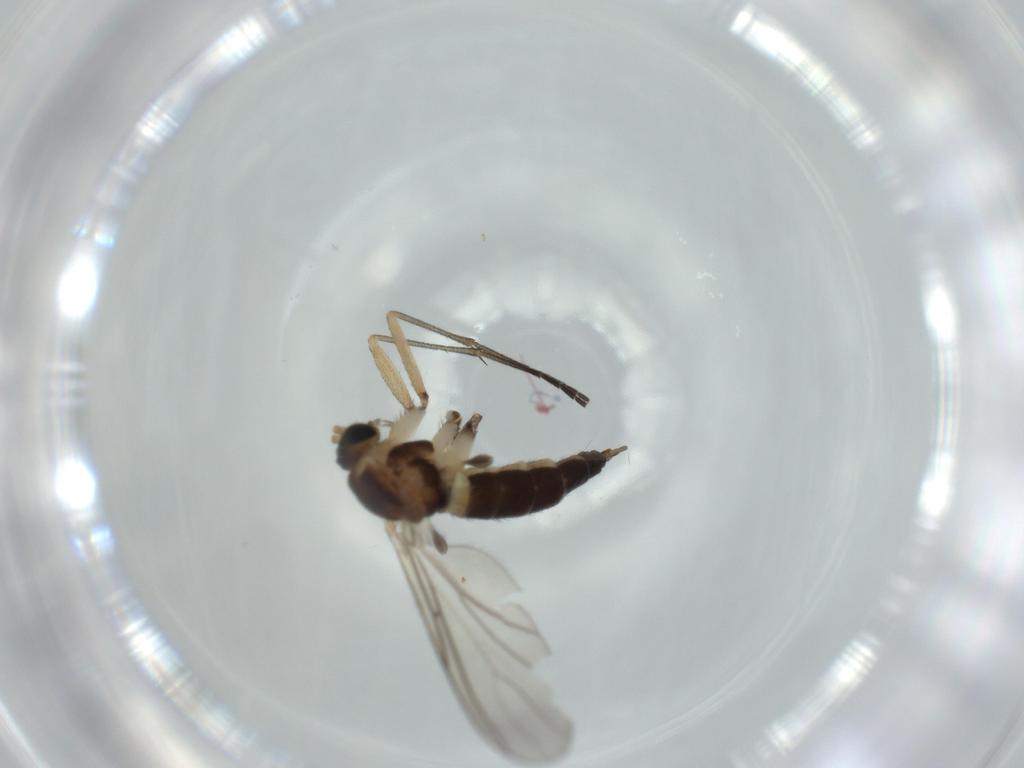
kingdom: Animalia
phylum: Arthropoda
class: Insecta
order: Diptera
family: Sciaridae
